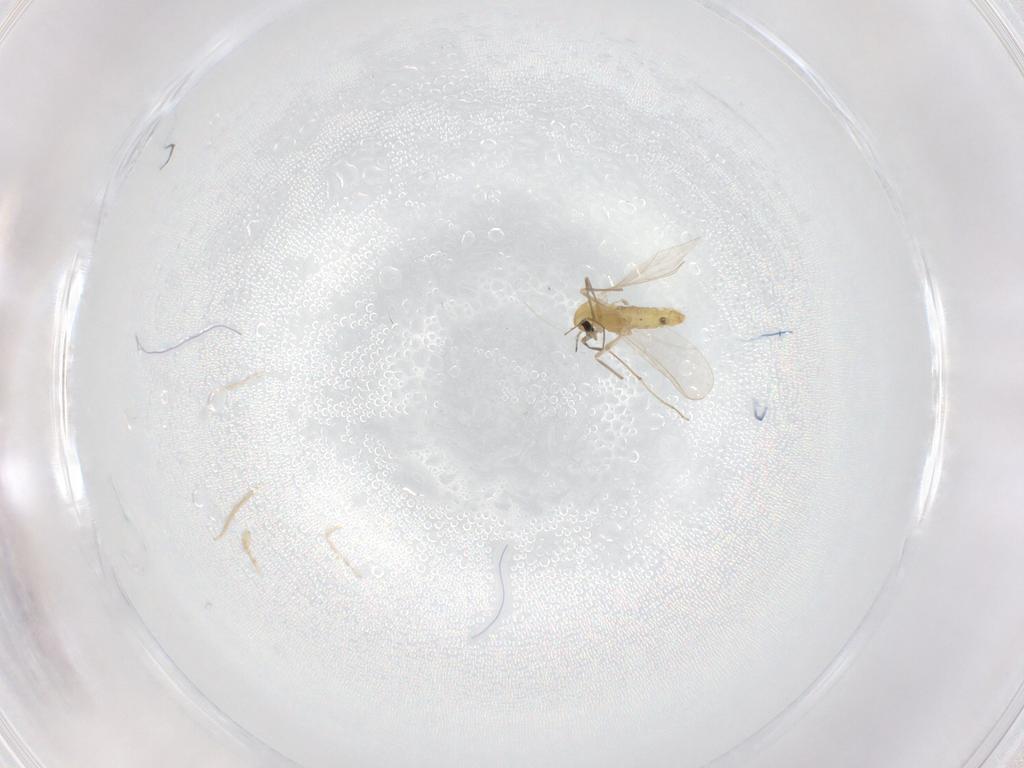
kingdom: Animalia
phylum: Arthropoda
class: Insecta
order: Diptera
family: Chironomidae
